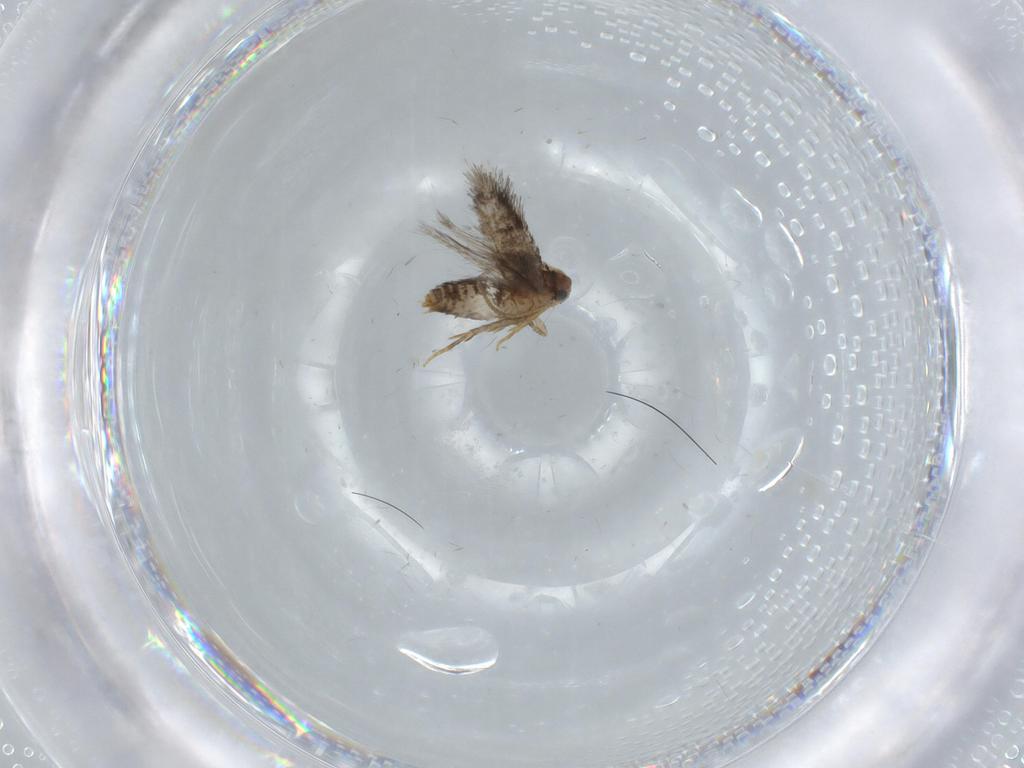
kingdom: Animalia
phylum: Arthropoda
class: Insecta
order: Lepidoptera
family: Nepticulidae
